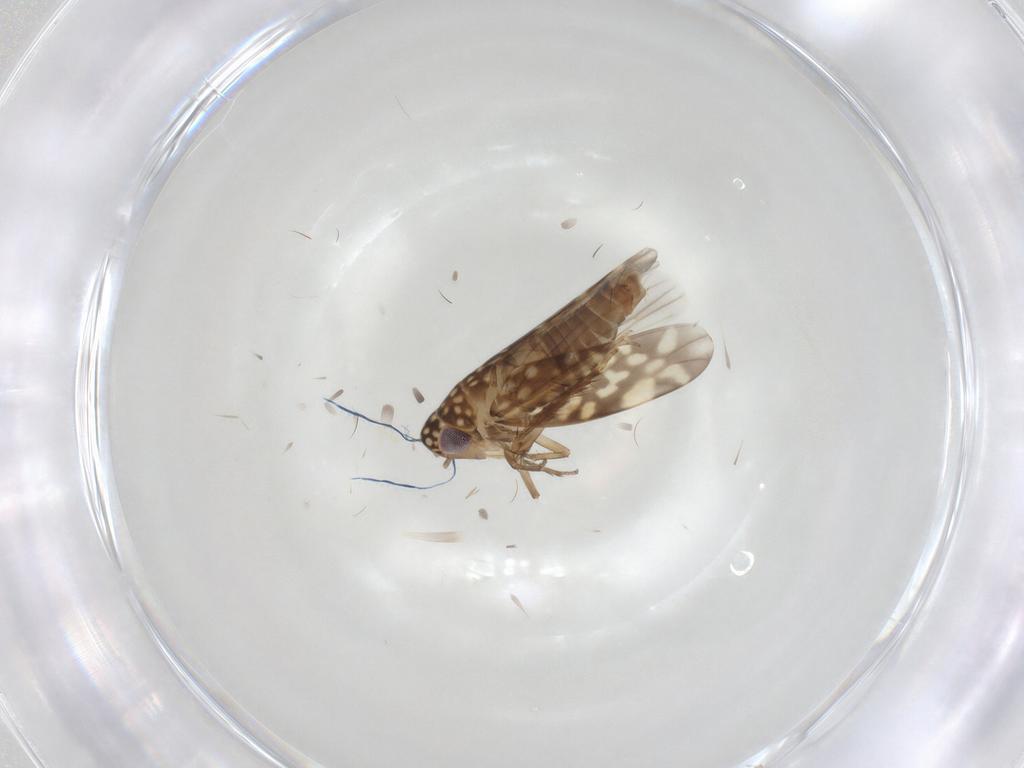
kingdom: Animalia
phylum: Arthropoda
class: Insecta
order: Hemiptera
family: Cicadellidae
